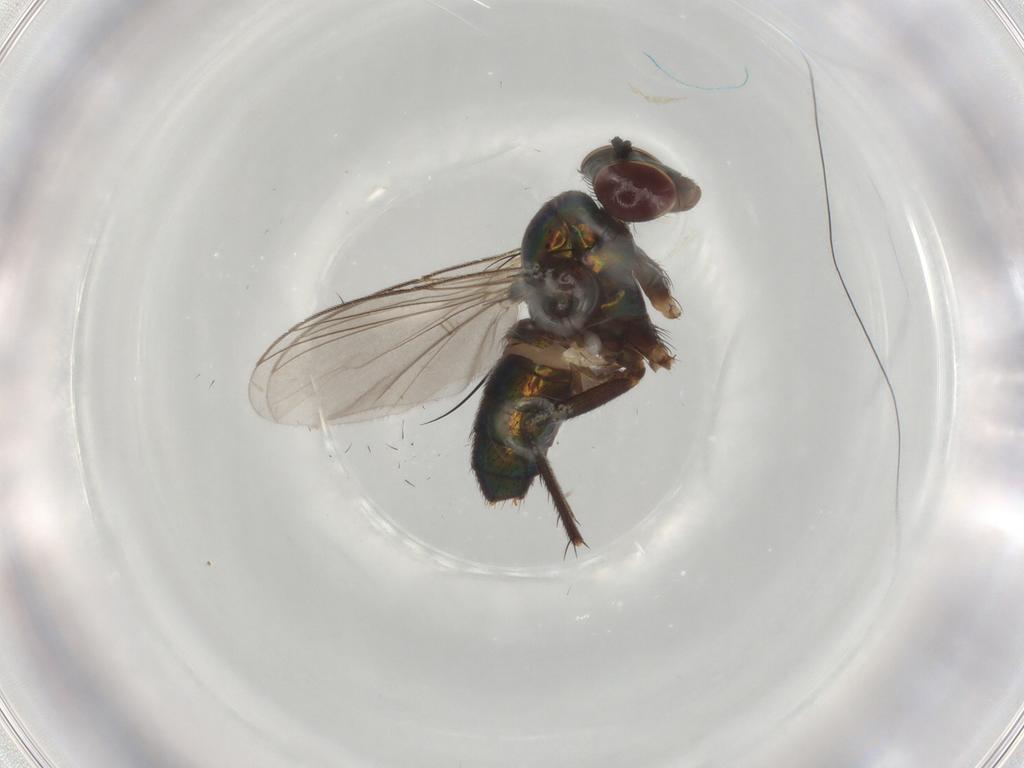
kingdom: Animalia
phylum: Arthropoda
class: Insecta
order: Diptera
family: Dolichopodidae
